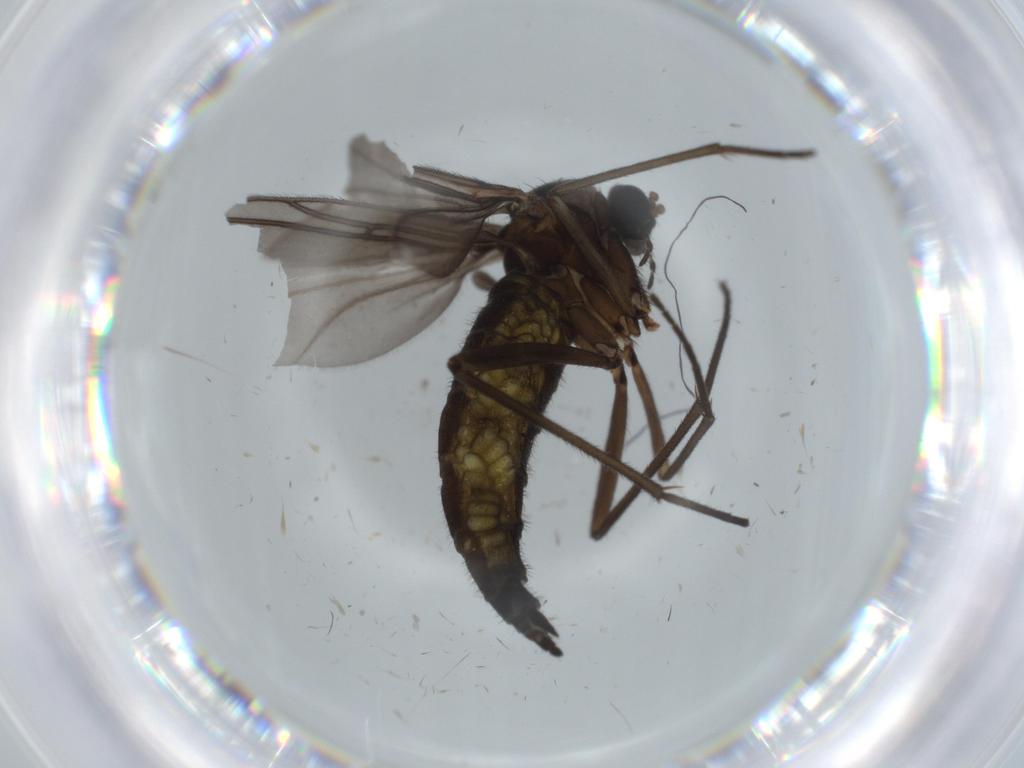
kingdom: Animalia
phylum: Arthropoda
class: Insecta
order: Diptera
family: Sciaridae
